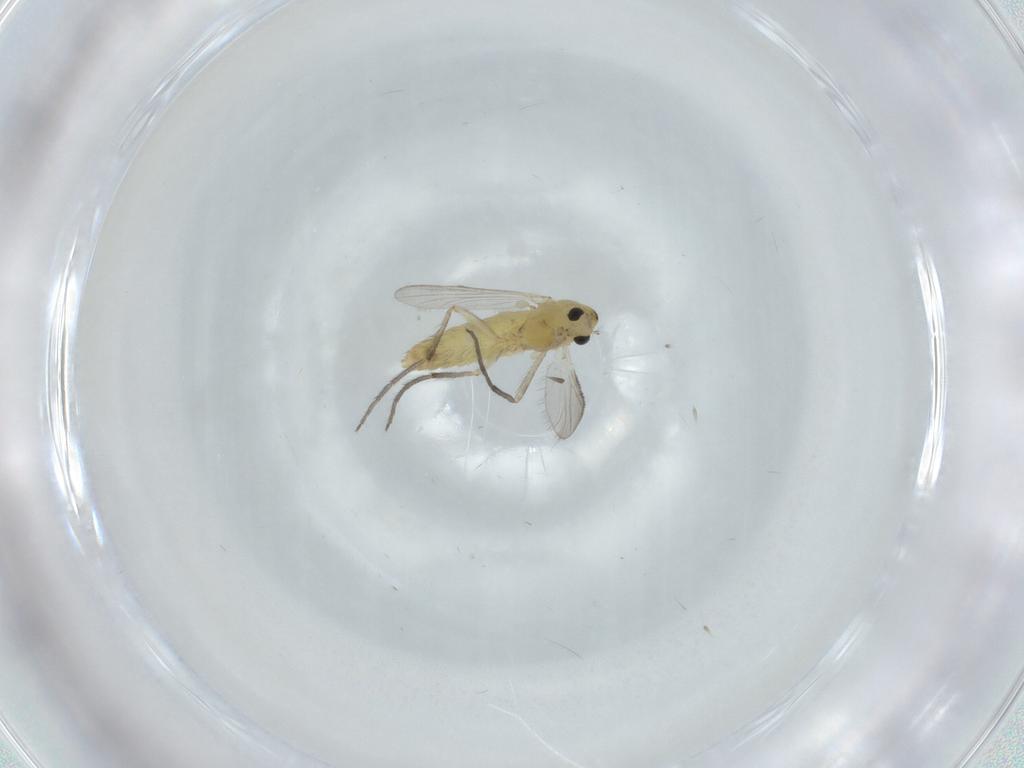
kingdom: Animalia
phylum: Arthropoda
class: Insecta
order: Diptera
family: Chironomidae
